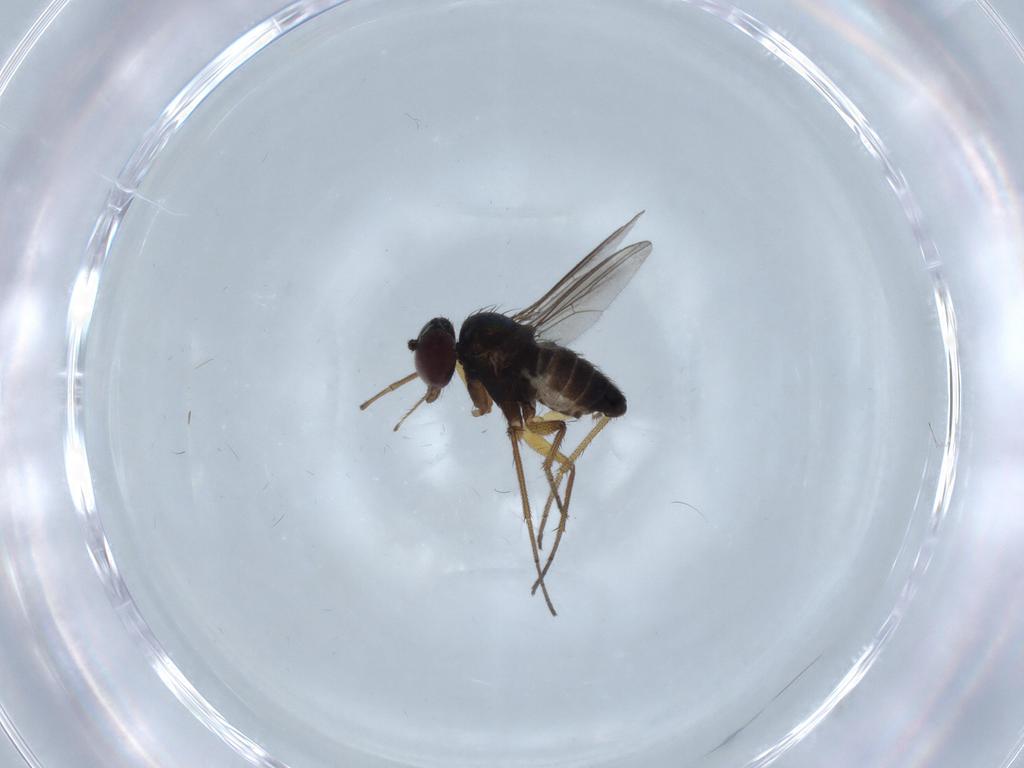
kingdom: Animalia
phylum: Arthropoda
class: Insecta
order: Diptera
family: Dolichopodidae
